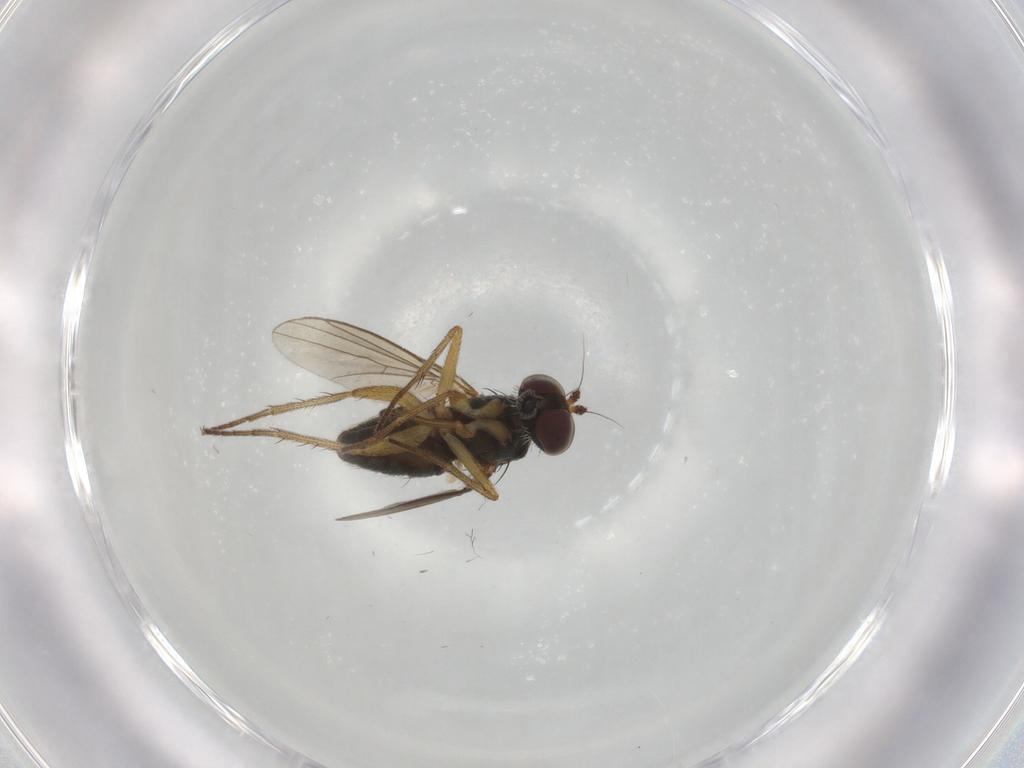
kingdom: Animalia
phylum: Arthropoda
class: Insecta
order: Diptera
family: Dolichopodidae
